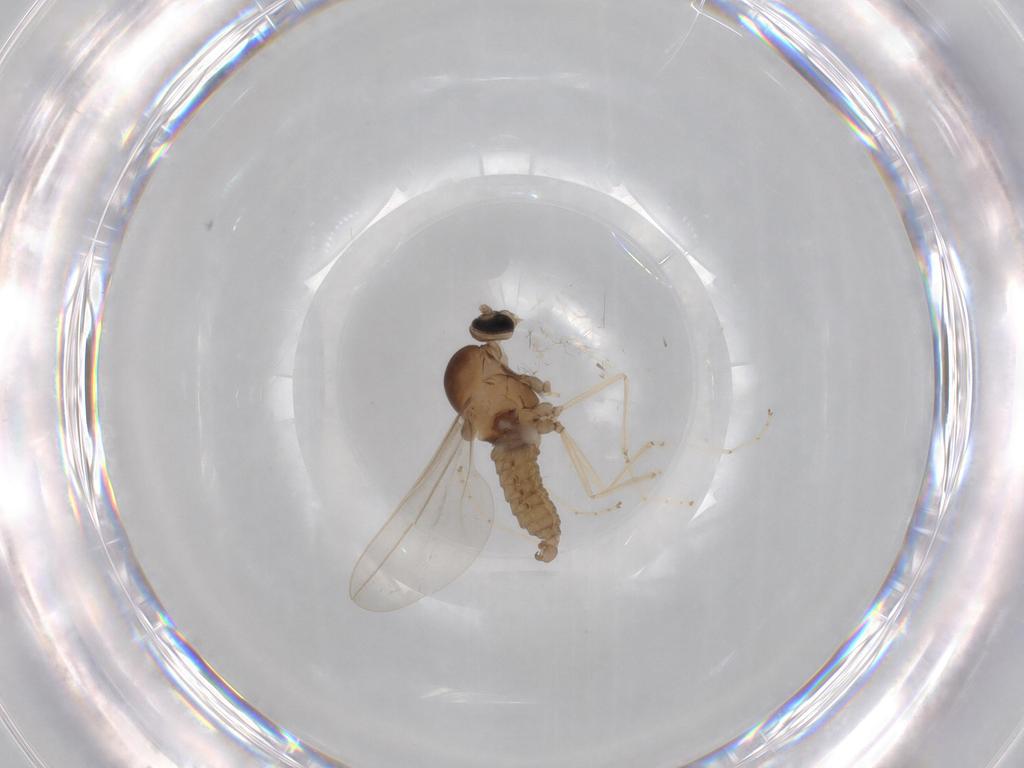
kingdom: Animalia
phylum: Arthropoda
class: Insecta
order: Diptera
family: Cecidomyiidae
